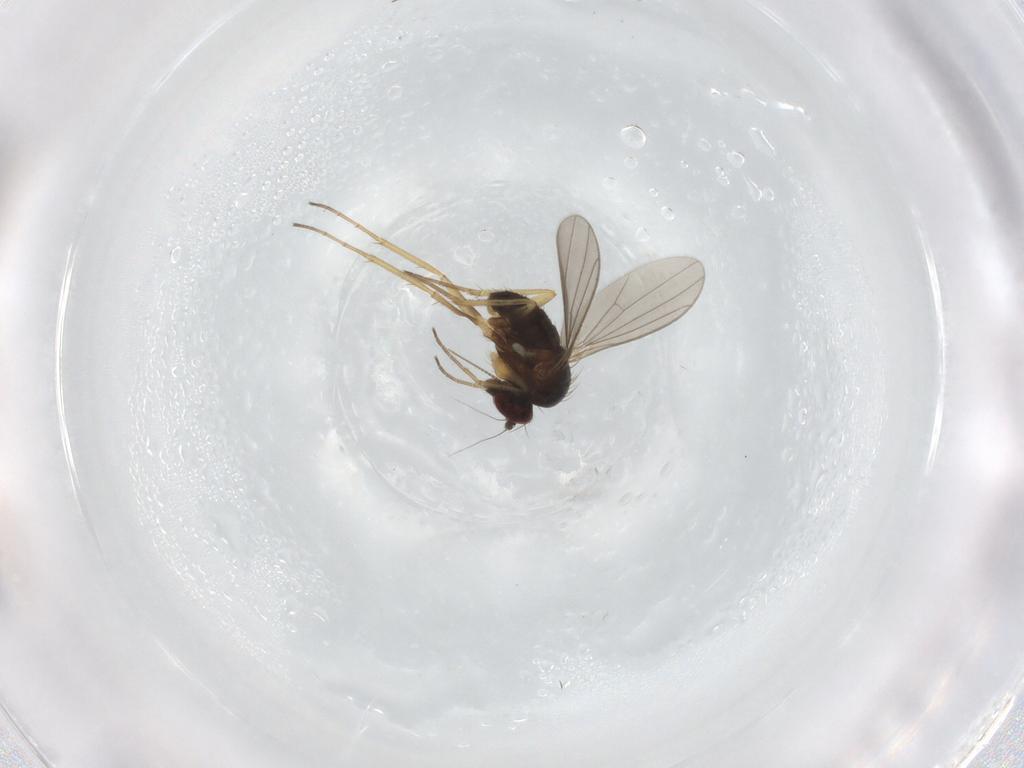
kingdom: Animalia
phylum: Arthropoda
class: Insecta
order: Diptera
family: Dolichopodidae
